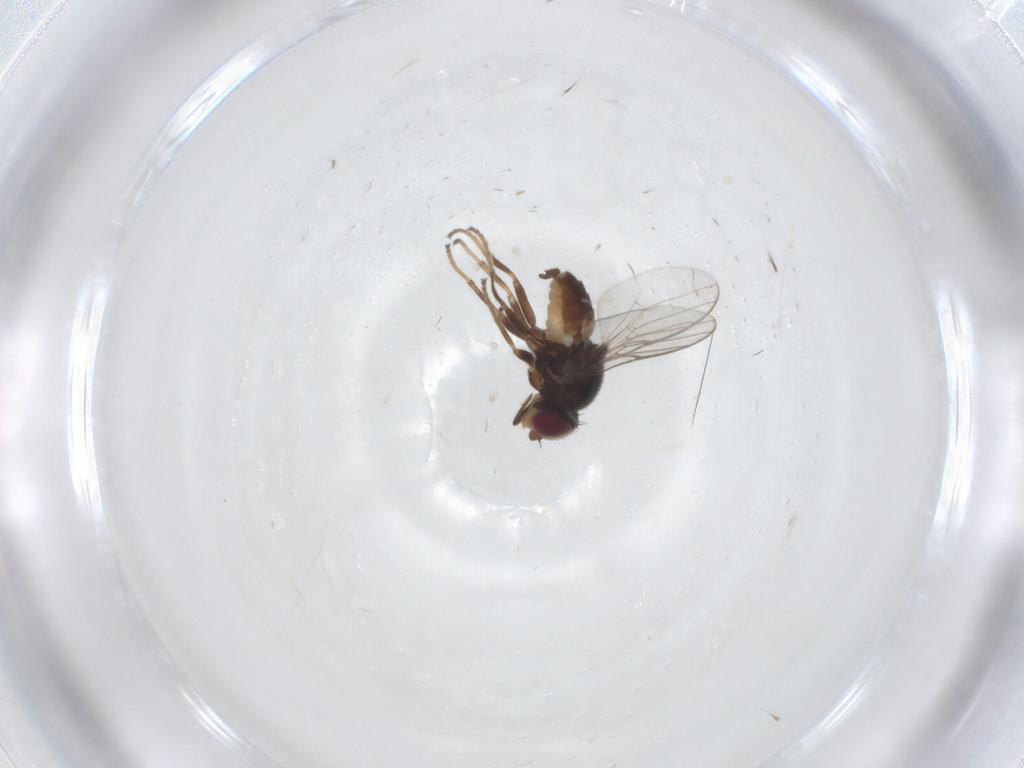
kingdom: Animalia
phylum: Arthropoda
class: Insecta
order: Diptera
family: Chloropidae
